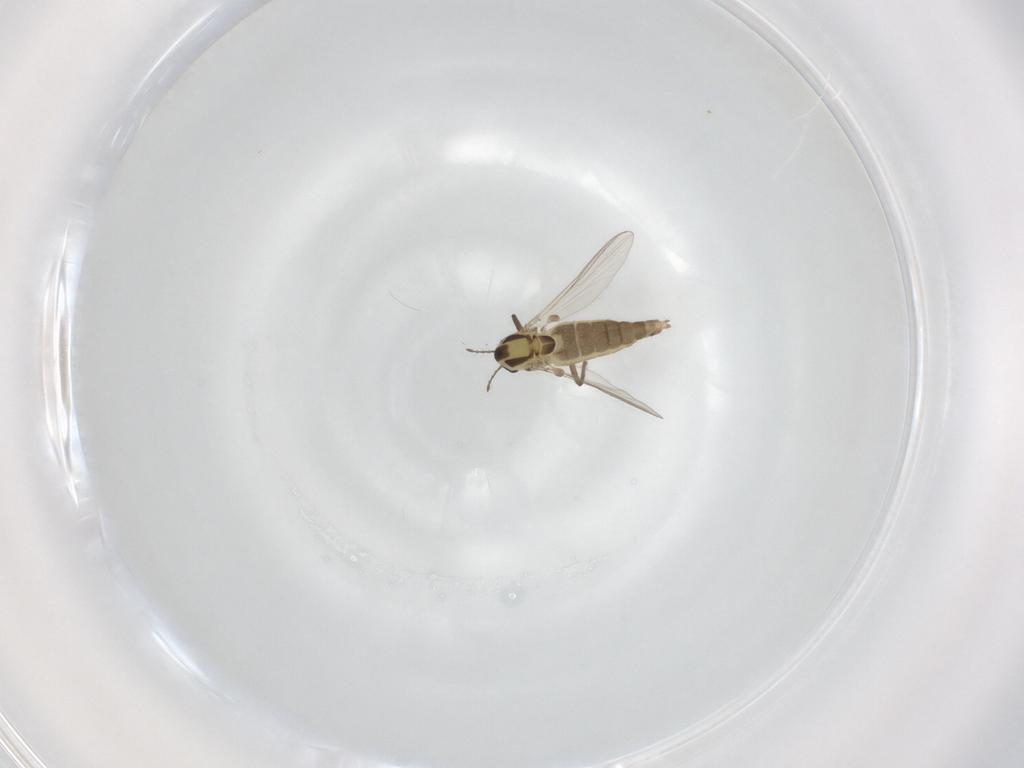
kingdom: Animalia
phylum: Arthropoda
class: Insecta
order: Diptera
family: Chironomidae
